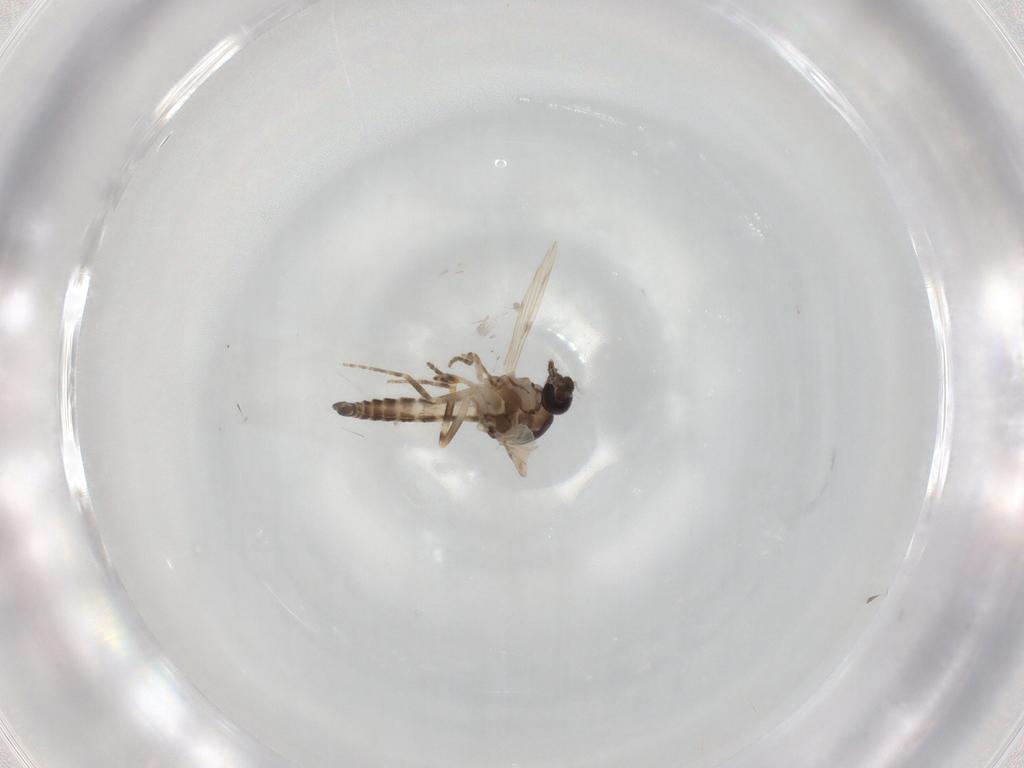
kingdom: Animalia
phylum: Arthropoda
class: Insecta
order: Diptera
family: Ceratopogonidae
